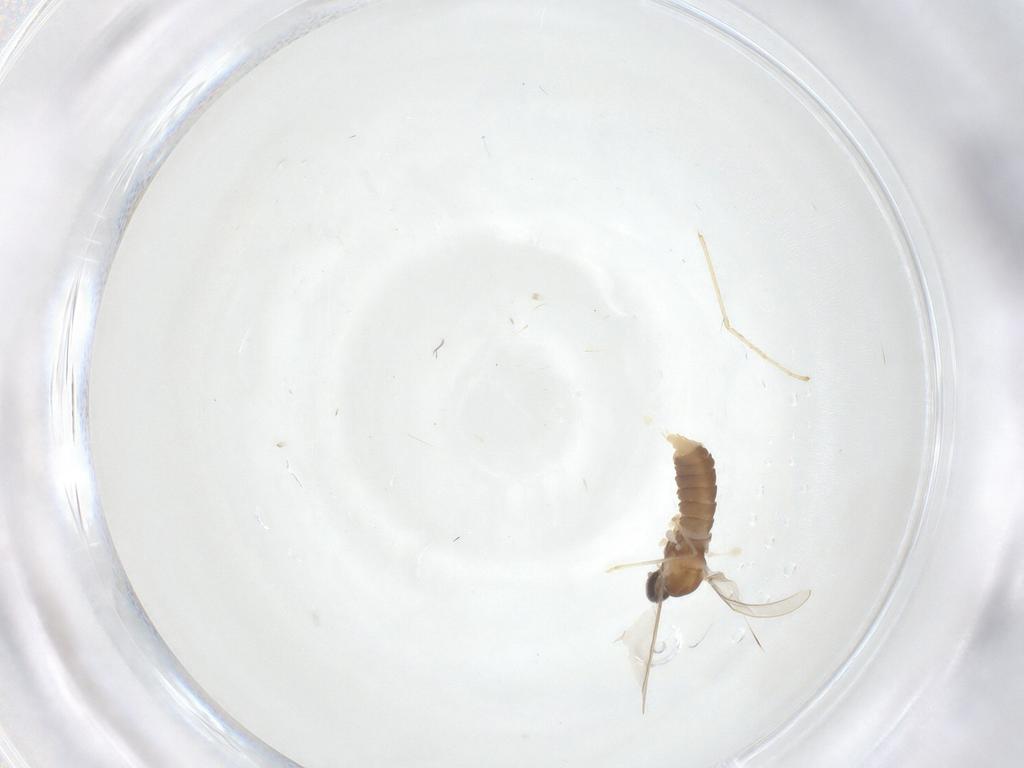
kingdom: Animalia
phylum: Arthropoda
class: Insecta
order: Diptera
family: Cecidomyiidae
